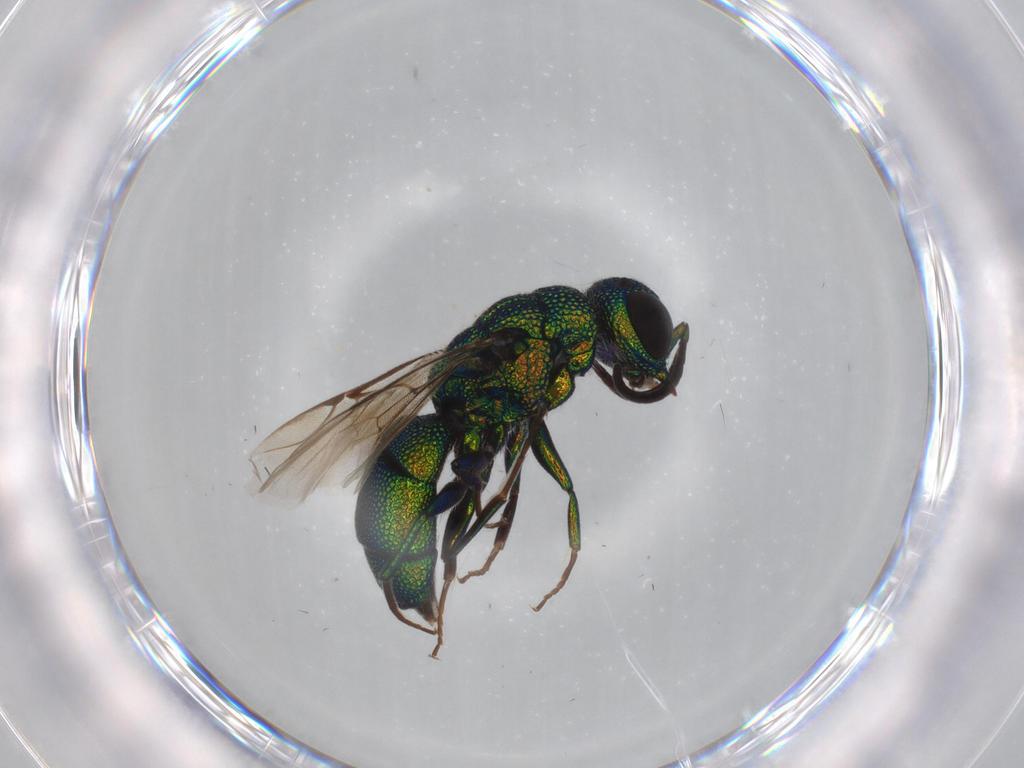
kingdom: Animalia
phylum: Arthropoda
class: Insecta
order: Hymenoptera
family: Chrysididae
